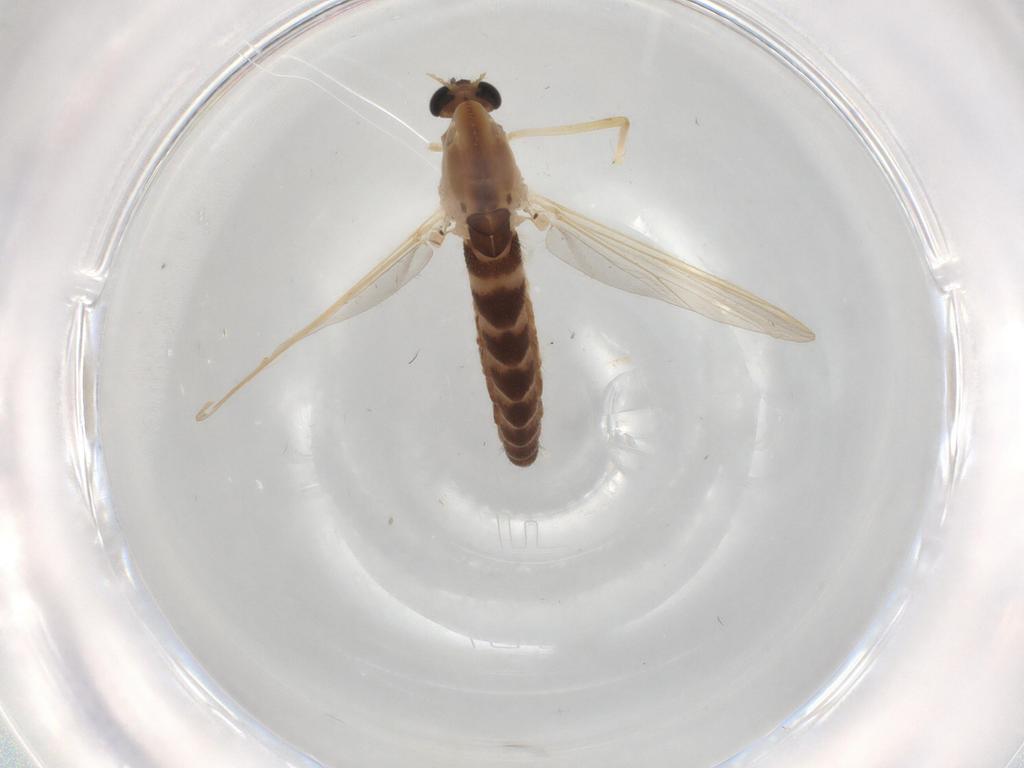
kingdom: Animalia
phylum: Arthropoda
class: Insecta
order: Diptera
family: Chironomidae
